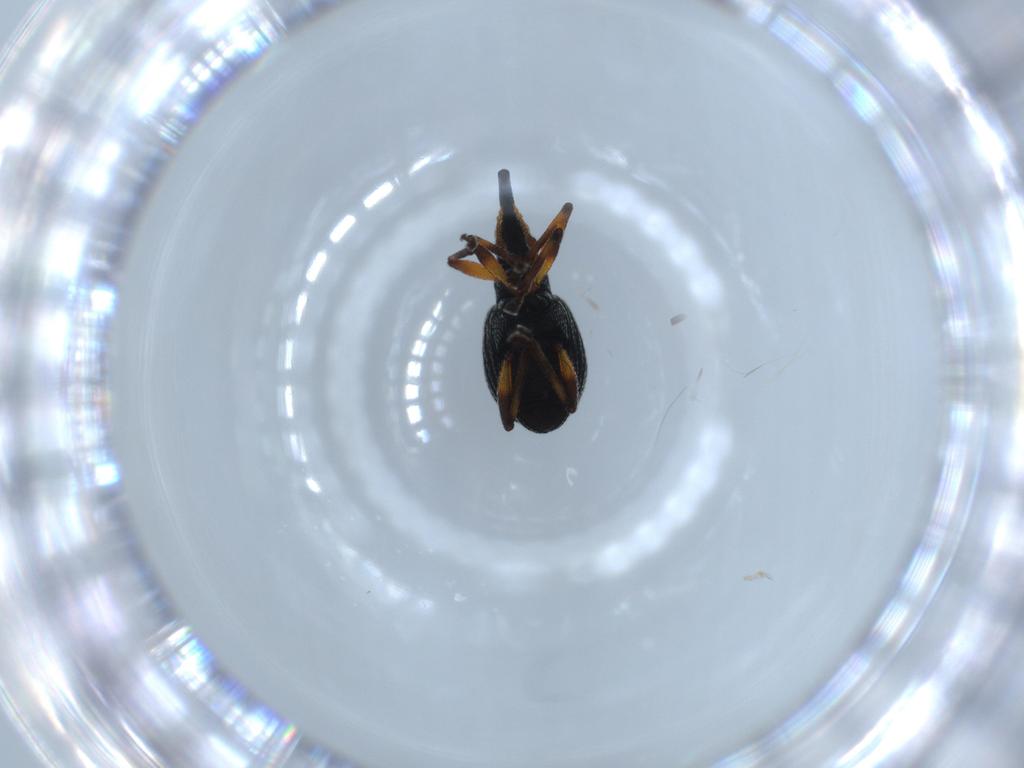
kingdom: Animalia
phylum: Arthropoda
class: Insecta
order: Coleoptera
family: Brentidae
